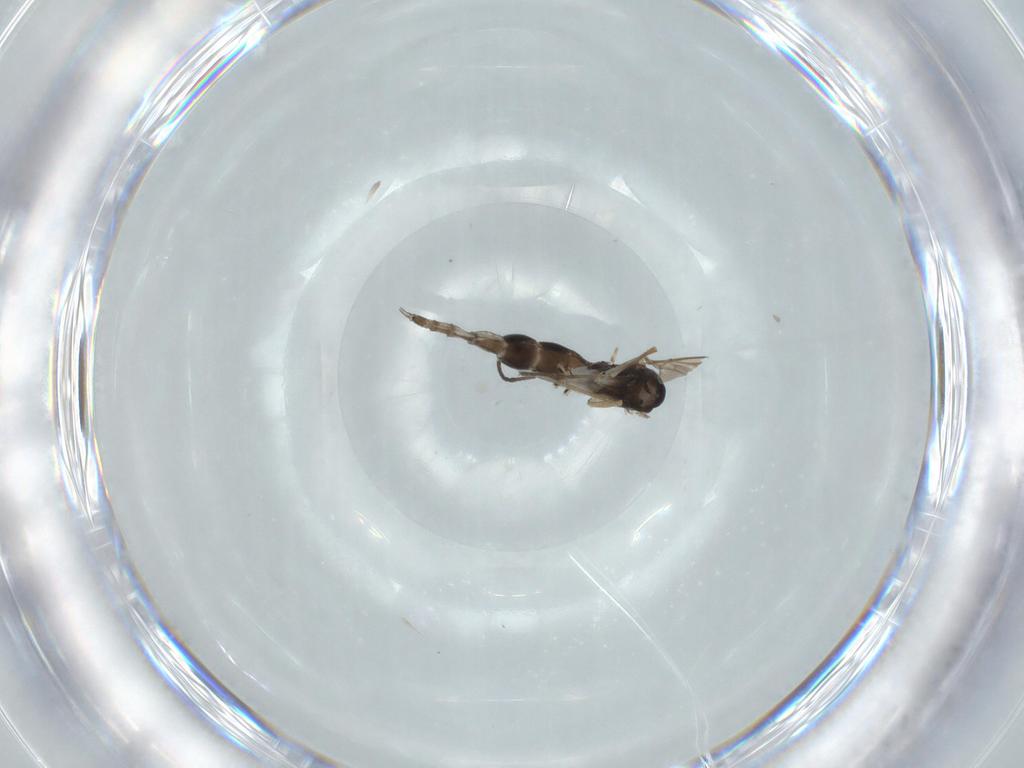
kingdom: Animalia
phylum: Arthropoda
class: Insecta
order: Diptera
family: Sciaridae
